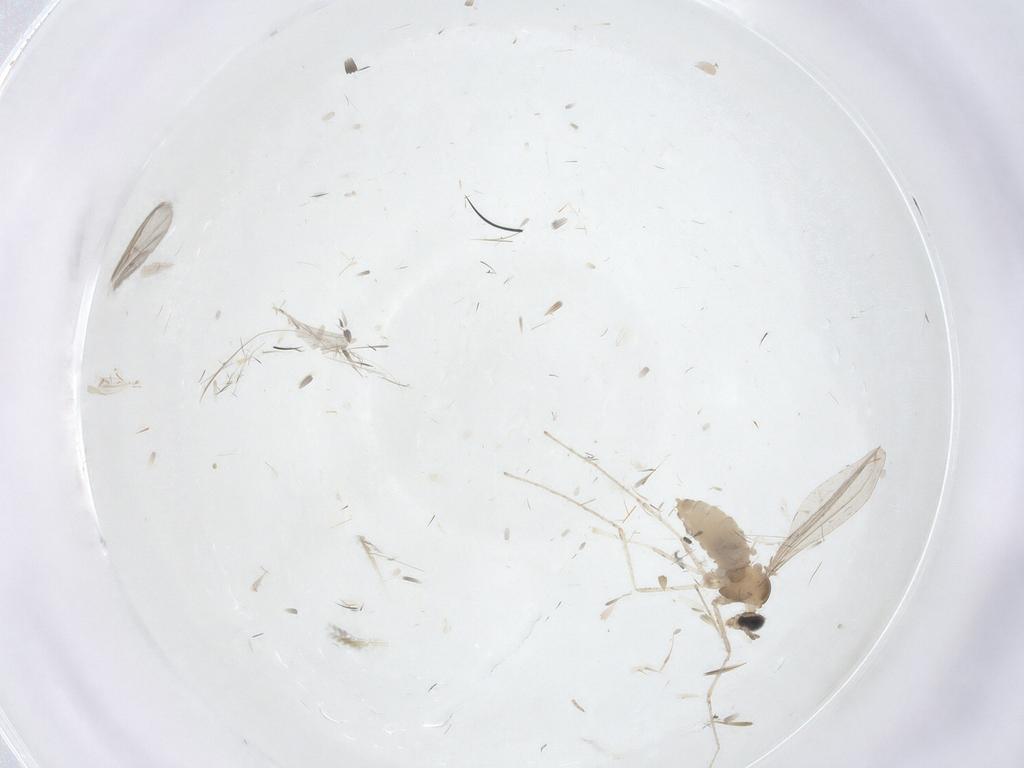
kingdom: Animalia
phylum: Arthropoda
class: Insecta
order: Diptera
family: Cecidomyiidae
